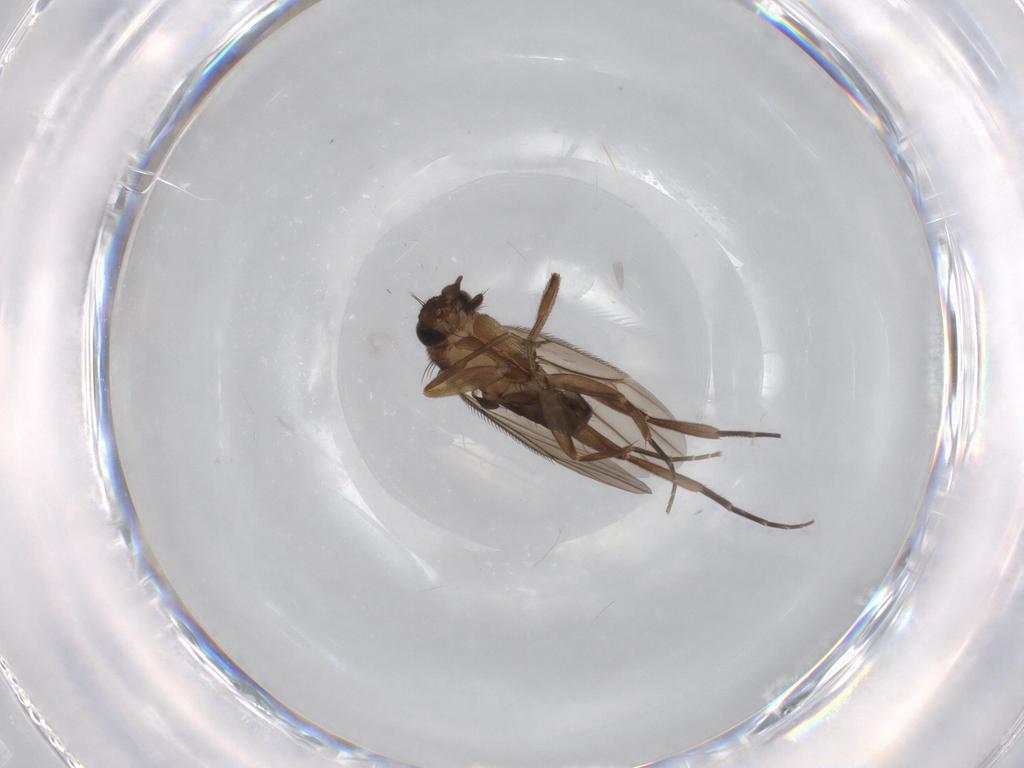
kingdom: Animalia
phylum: Arthropoda
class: Insecta
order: Diptera
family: Phoridae
